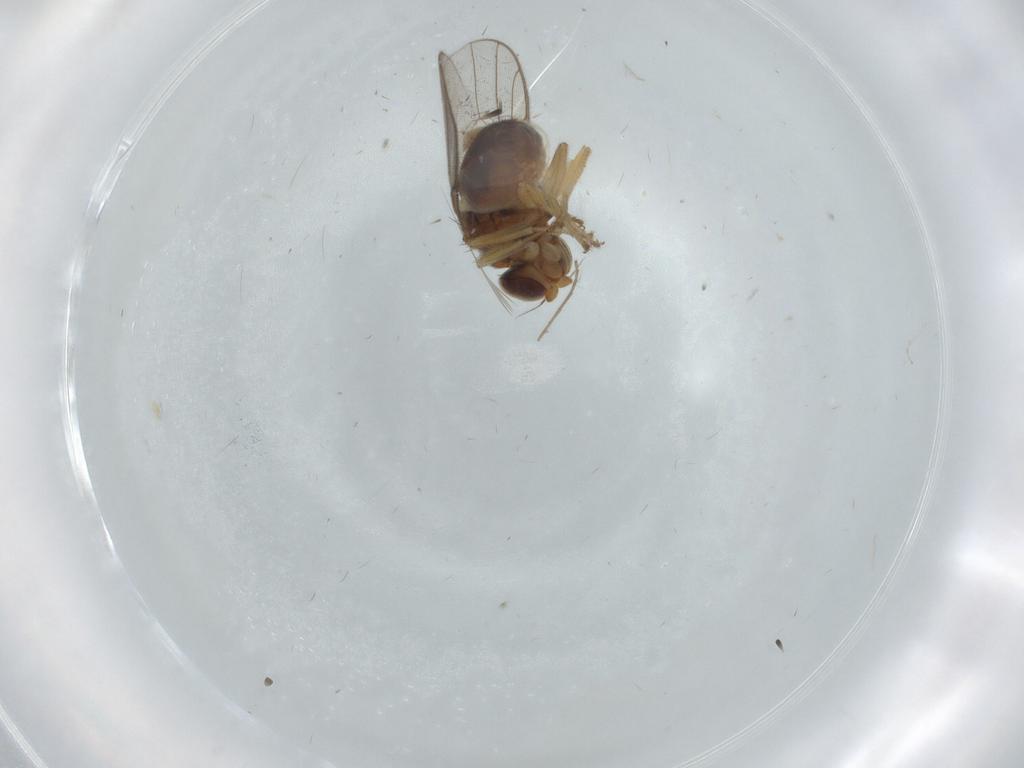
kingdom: Animalia
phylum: Arthropoda
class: Insecta
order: Diptera
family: Chloropidae
